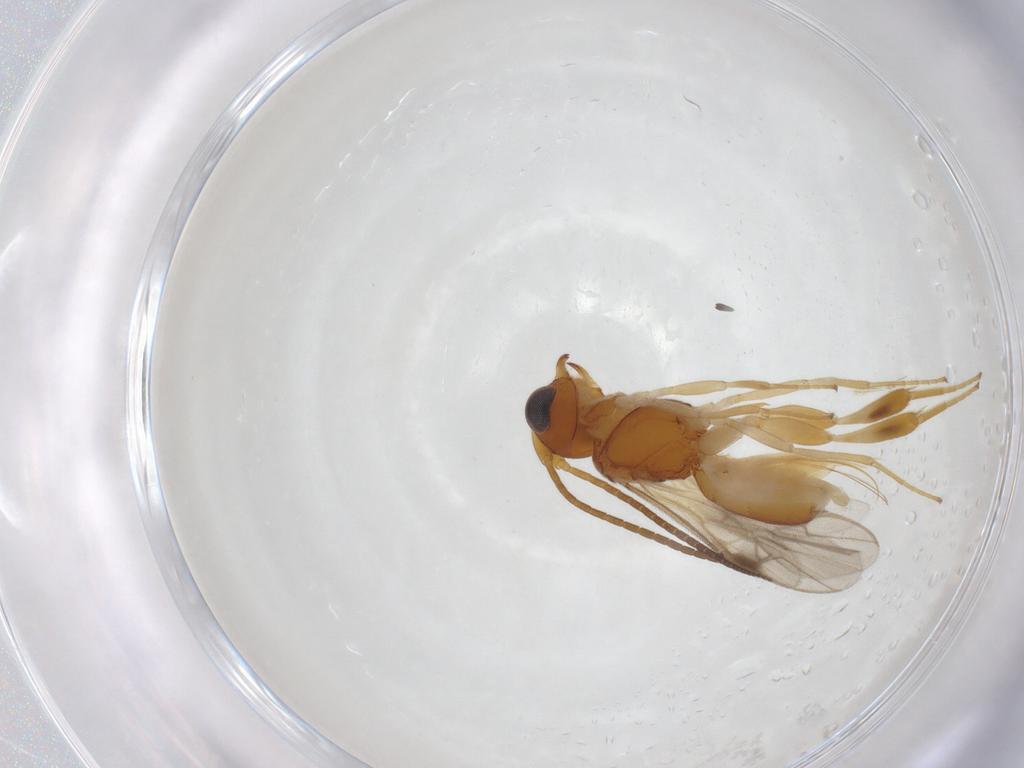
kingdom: Animalia
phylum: Arthropoda
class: Insecta
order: Hymenoptera
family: Braconidae
